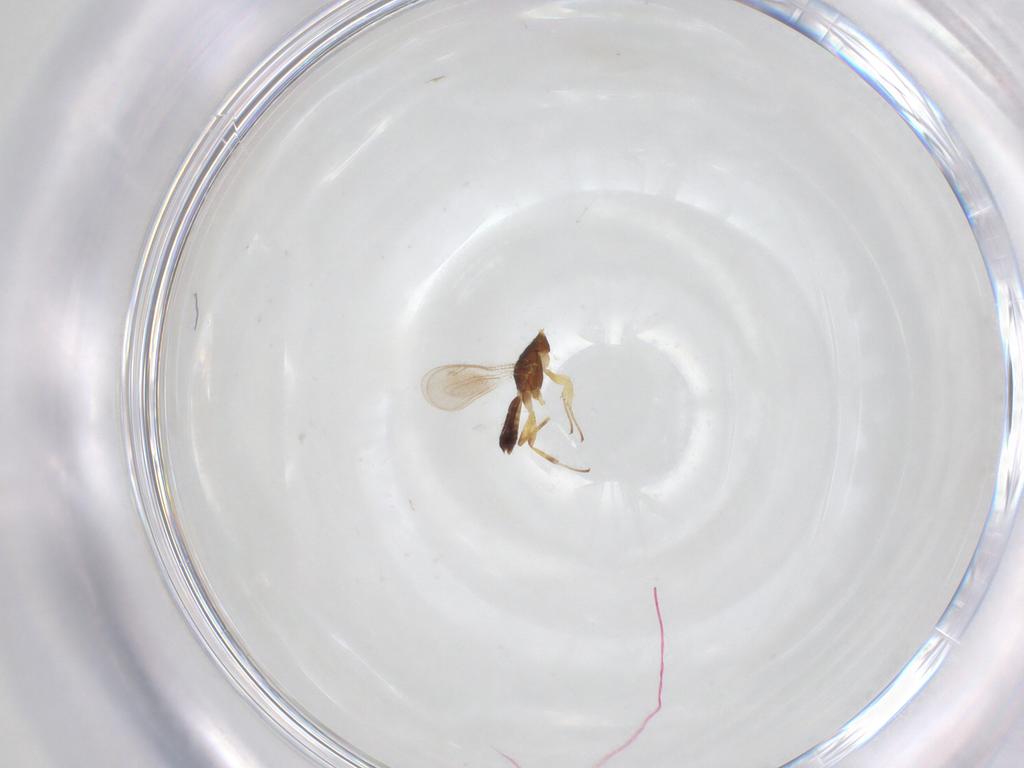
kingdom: Animalia
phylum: Arthropoda
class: Insecta
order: Hymenoptera
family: Eupelmidae
